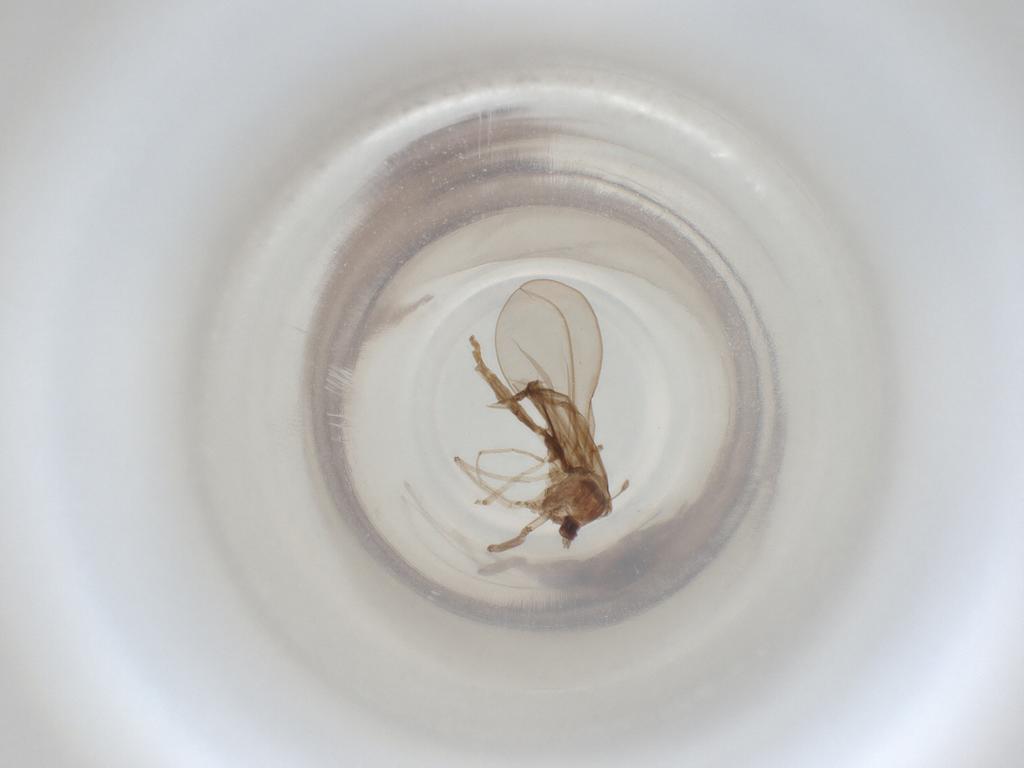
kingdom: Animalia
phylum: Arthropoda
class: Insecta
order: Diptera
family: Cecidomyiidae
